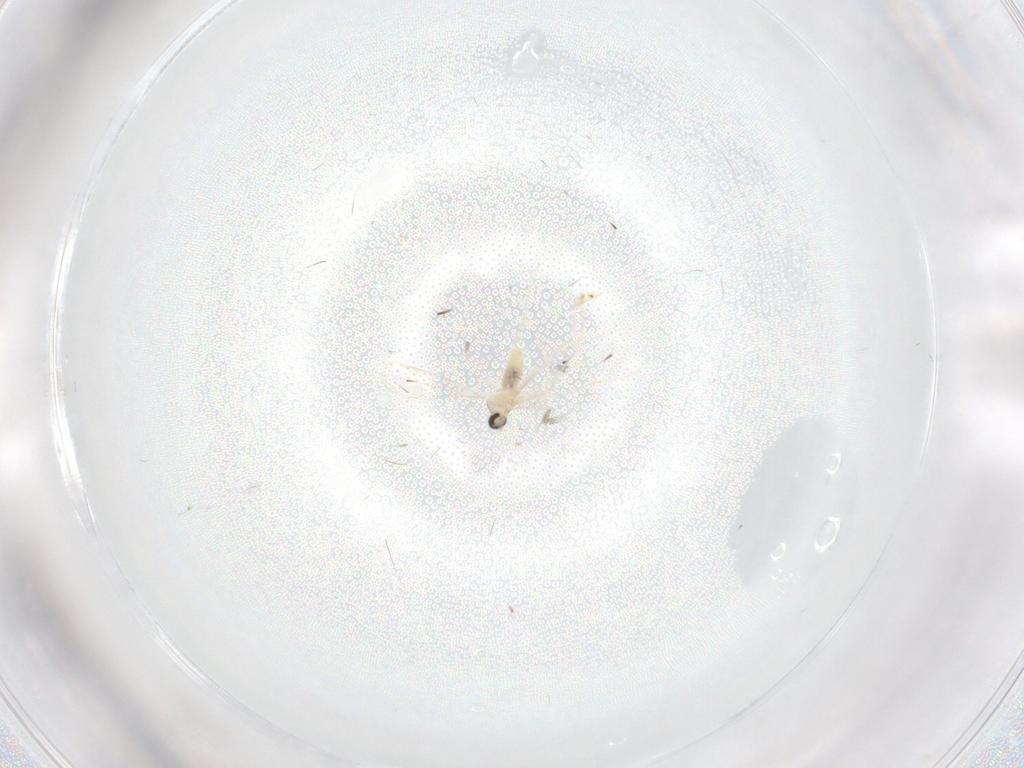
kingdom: Animalia
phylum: Arthropoda
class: Insecta
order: Diptera
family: Cecidomyiidae
